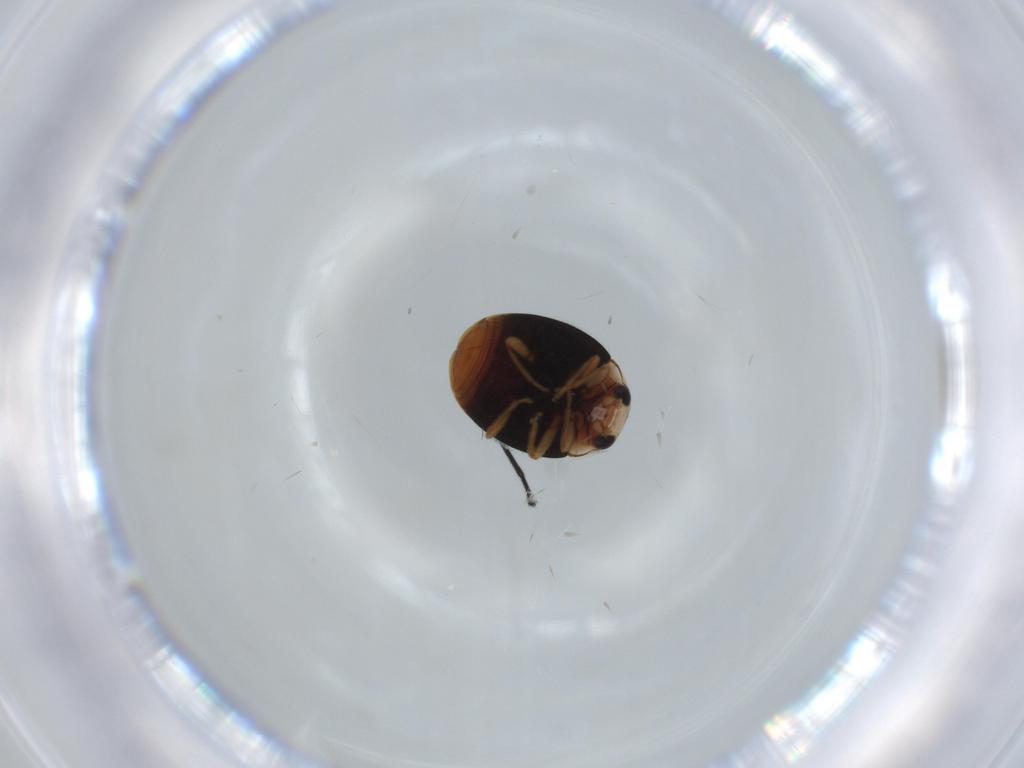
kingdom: Animalia
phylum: Arthropoda
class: Insecta
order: Coleoptera
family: Coccinellidae
